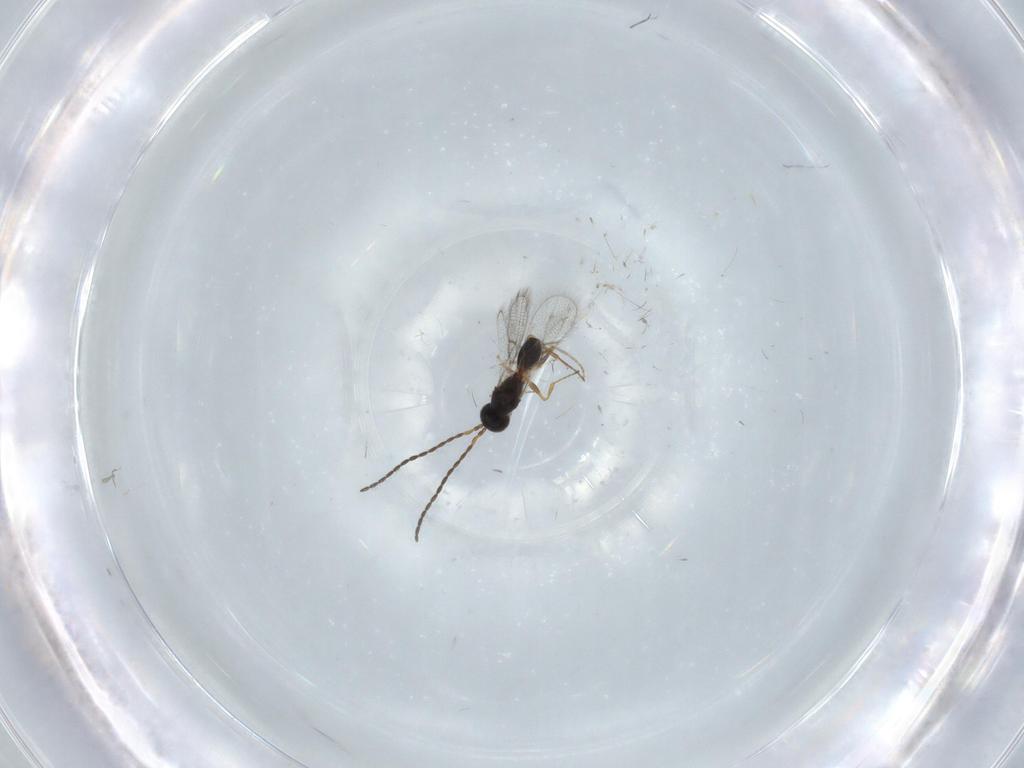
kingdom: Animalia
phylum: Arthropoda
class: Insecta
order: Hymenoptera
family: Figitidae
